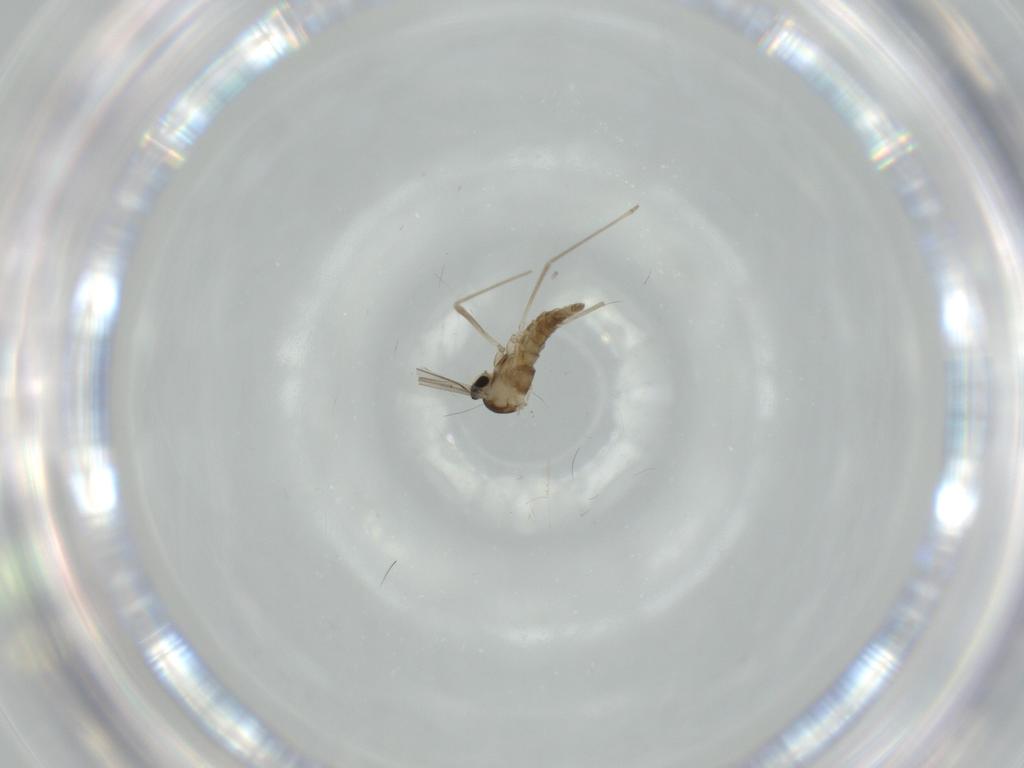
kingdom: Animalia
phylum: Arthropoda
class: Insecta
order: Diptera
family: Cecidomyiidae
